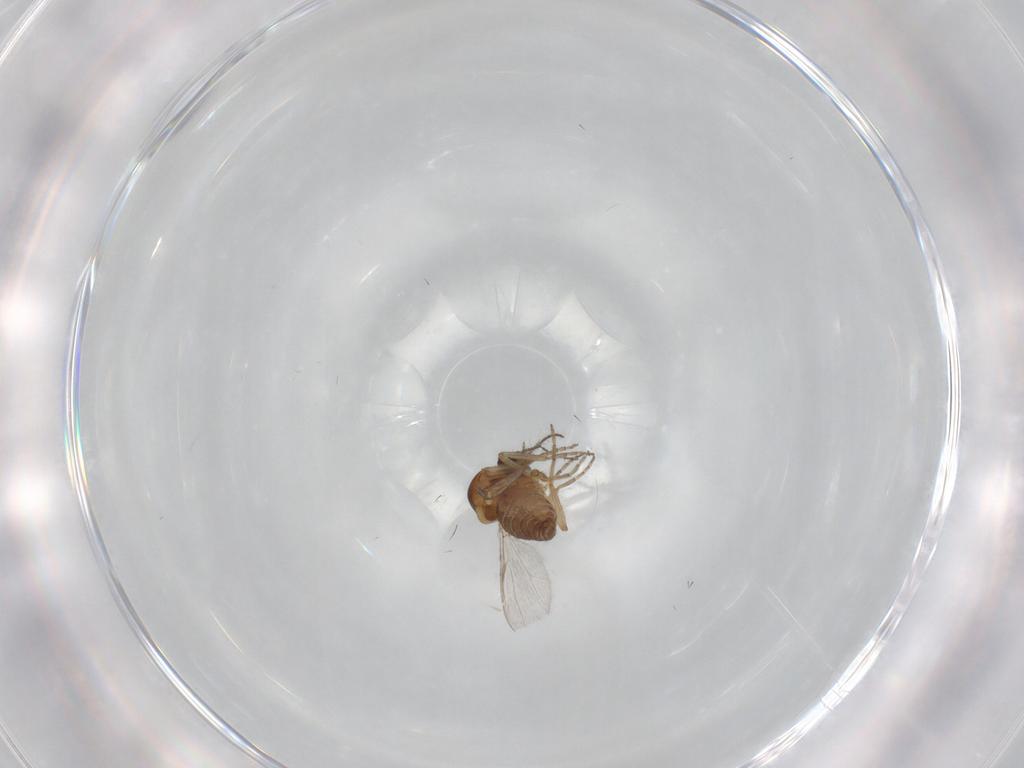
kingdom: Animalia
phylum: Arthropoda
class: Insecta
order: Diptera
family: Ceratopogonidae
